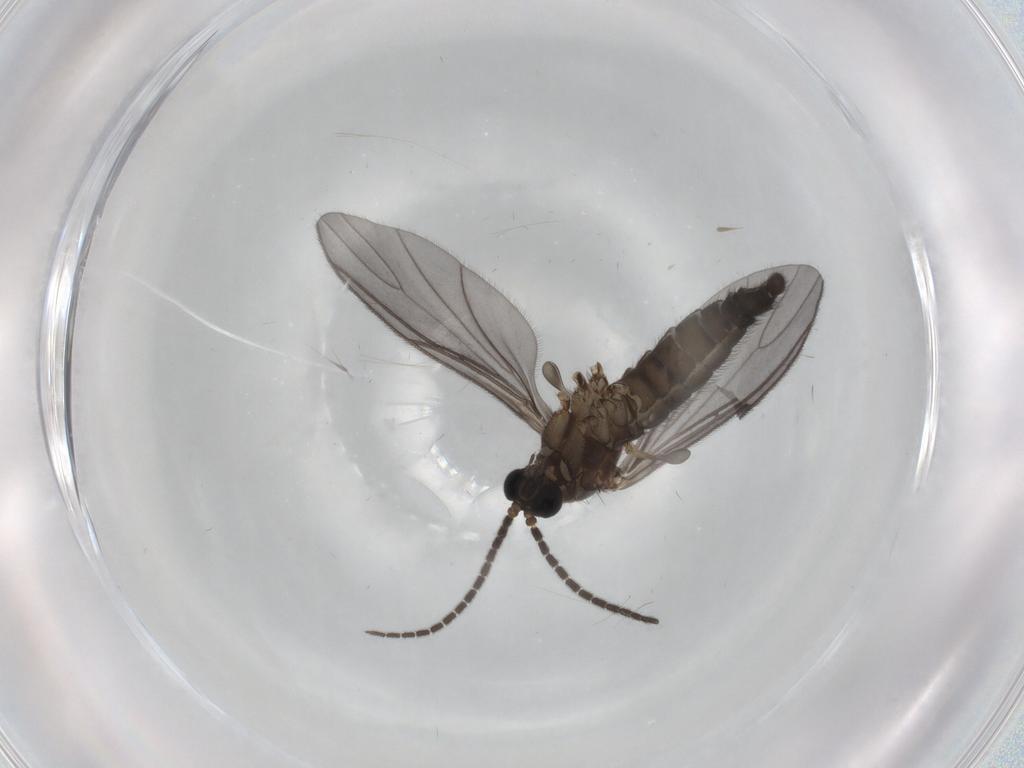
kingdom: Animalia
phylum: Arthropoda
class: Insecta
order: Diptera
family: Sciaridae
